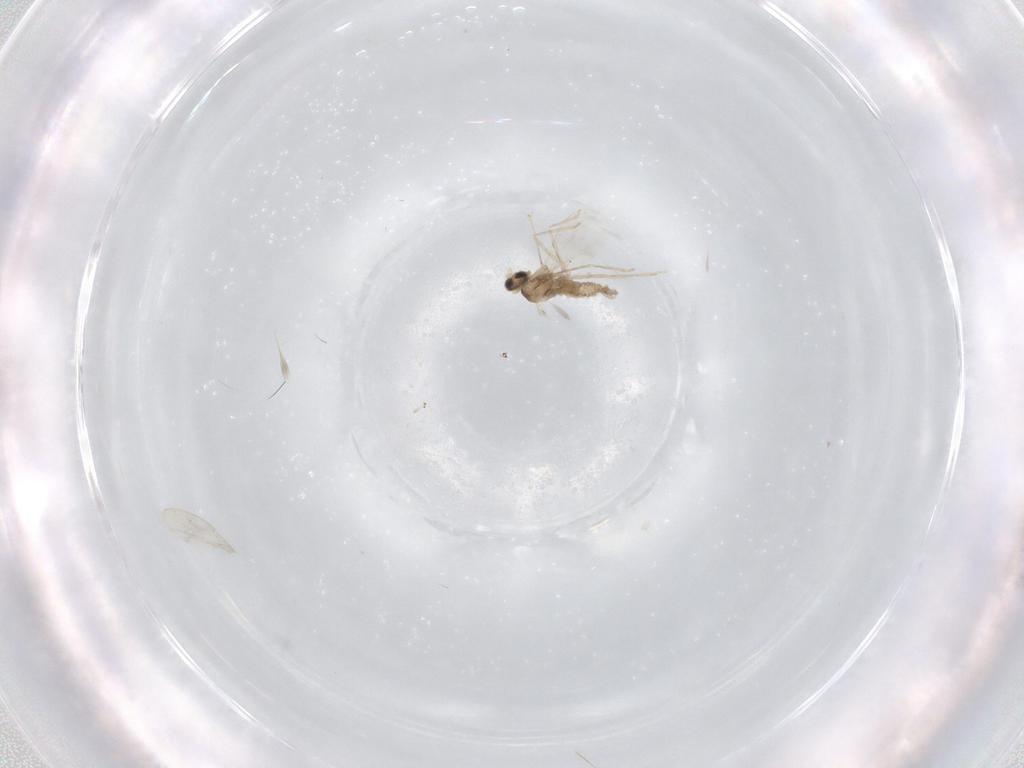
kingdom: Animalia
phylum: Arthropoda
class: Insecta
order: Diptera
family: Cecidomyiidae
